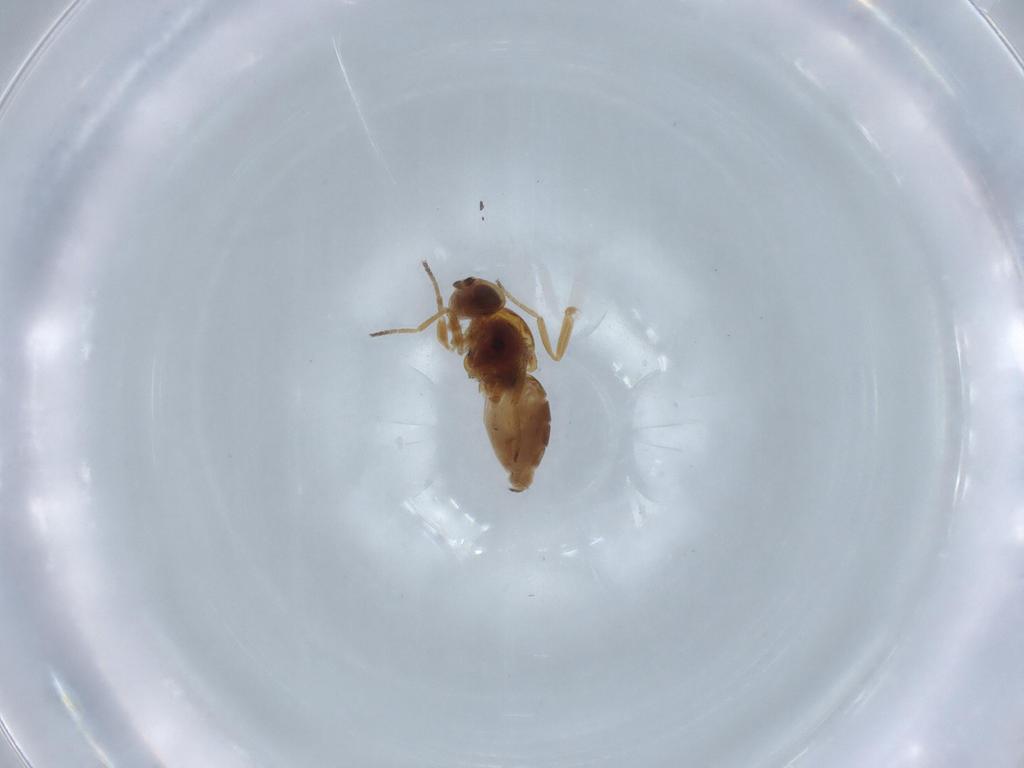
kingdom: Animalia
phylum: Arthropoda
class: Insecta
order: Diptera
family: Chloropidae
